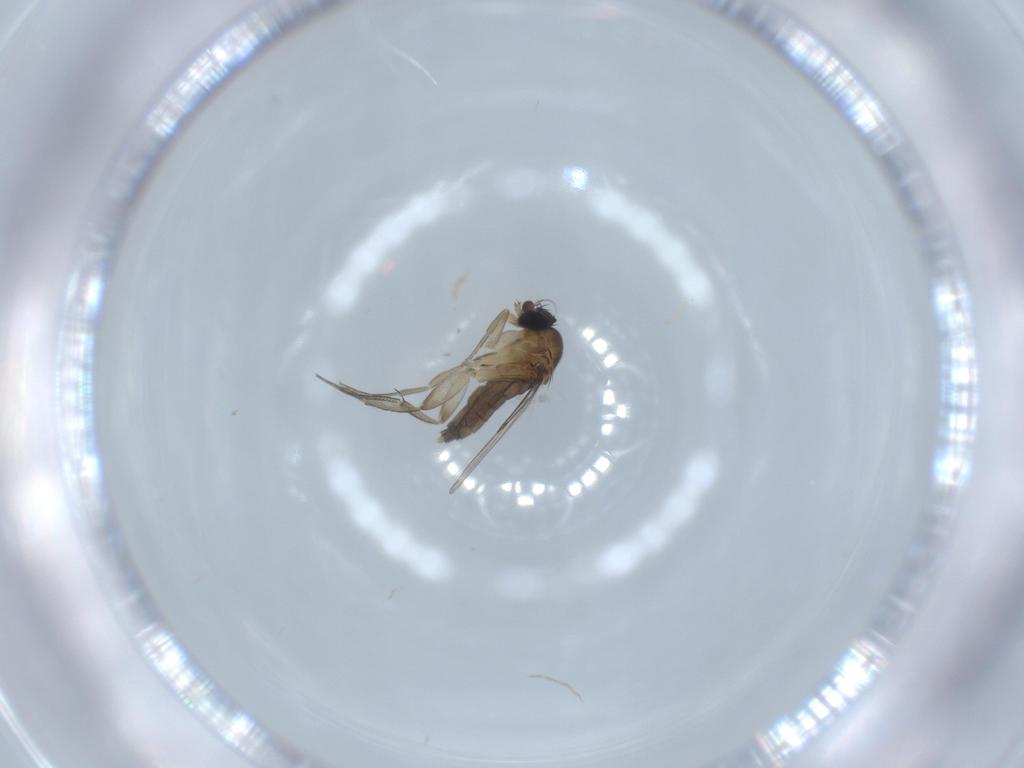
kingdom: Animalia
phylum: Arthropoda
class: Insecta
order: Diptera
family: Phoridae
